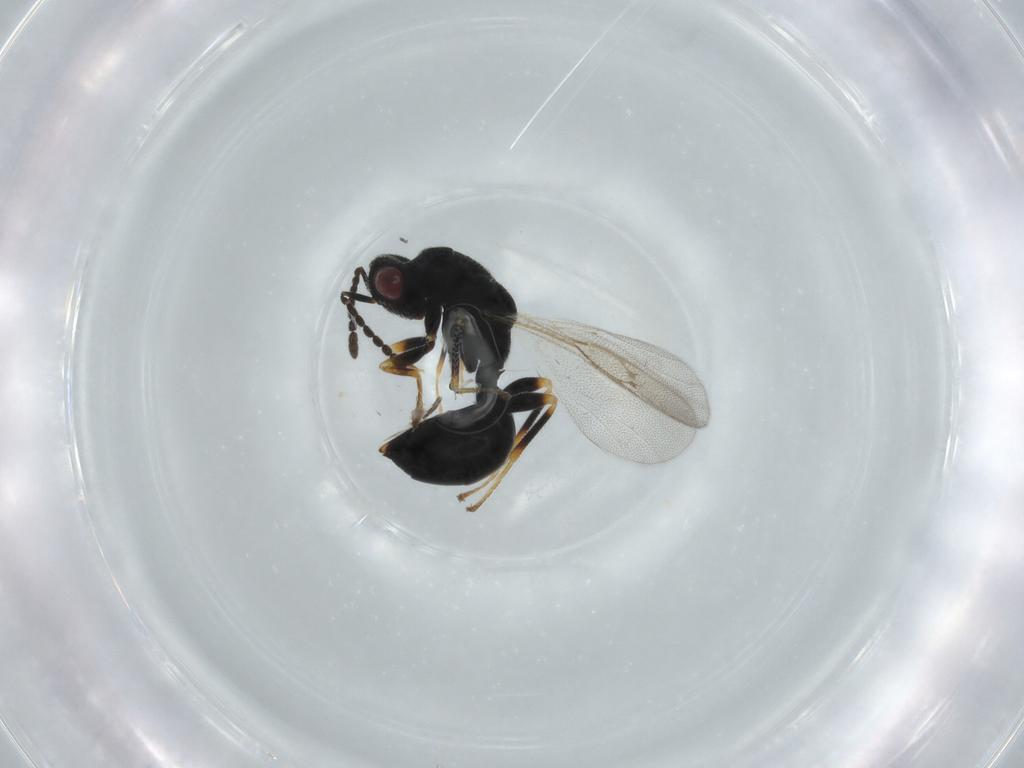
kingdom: Animalia
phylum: Arthropoda
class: Insecta
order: Hymenoptera
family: Eurytomidae
